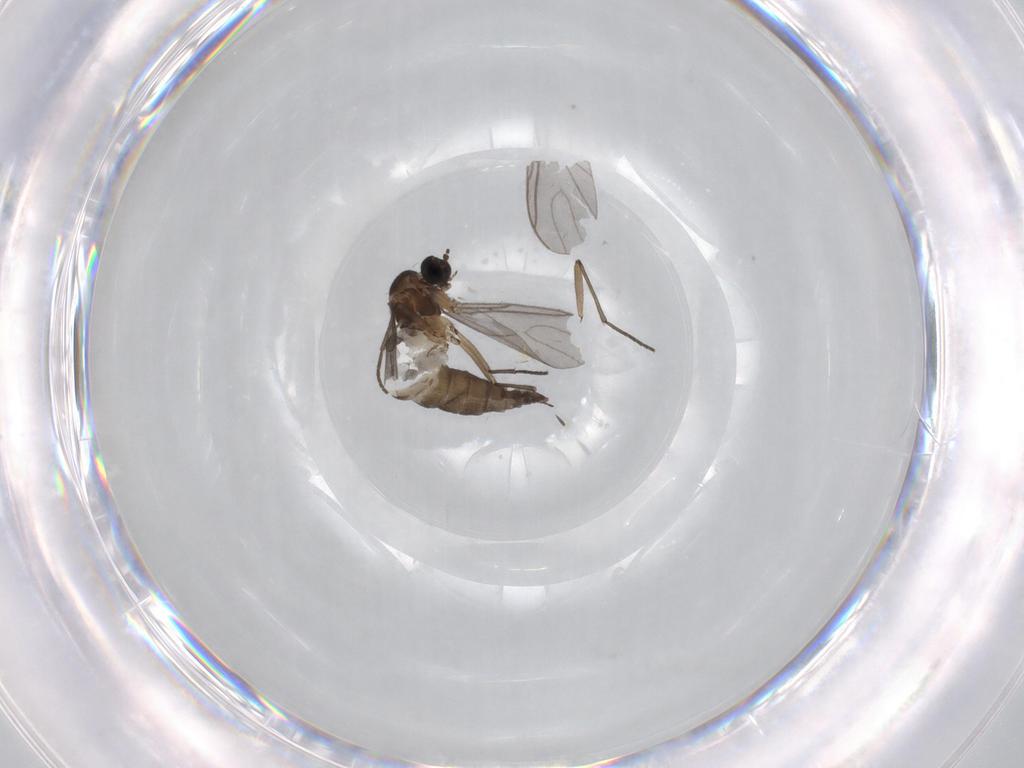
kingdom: Animalia
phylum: Arthropoda
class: Insecta
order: Diptera
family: Sciaridae
